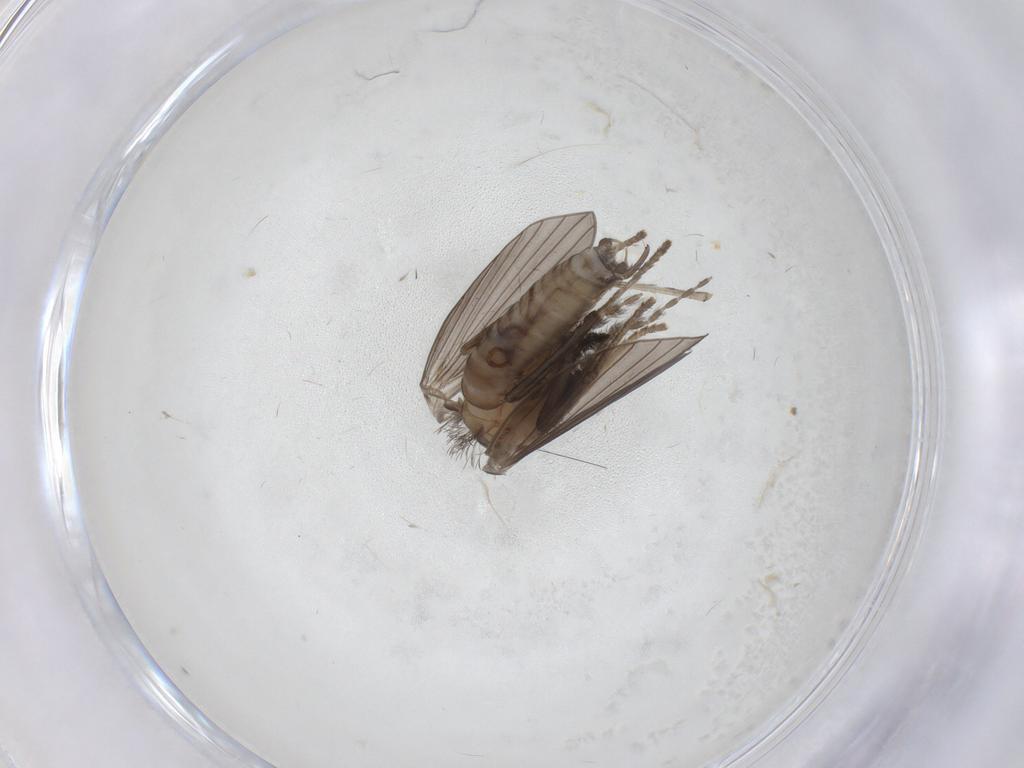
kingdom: Animalia
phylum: Arthropoda
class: Insecta
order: Diptera
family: Psychodidae
